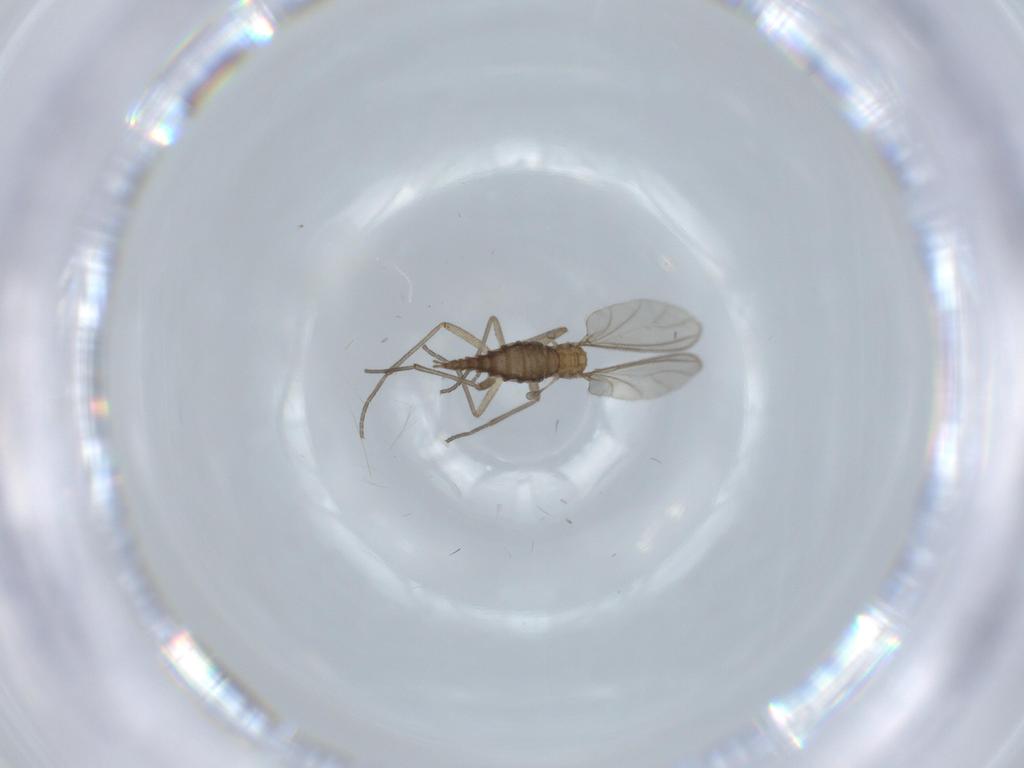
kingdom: Animalia
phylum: Arthropoda
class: Insecta
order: Diptera
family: Sciaridae
